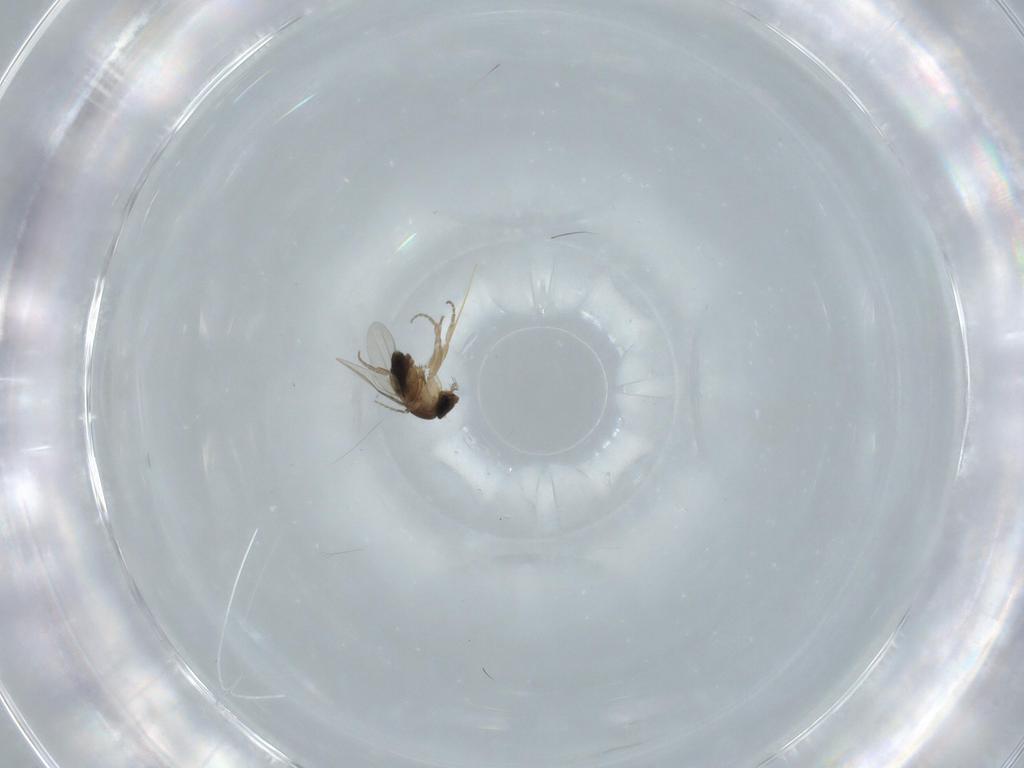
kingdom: Animalia
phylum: Arthropoda
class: Insecta
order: Diptera
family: Phoridae
